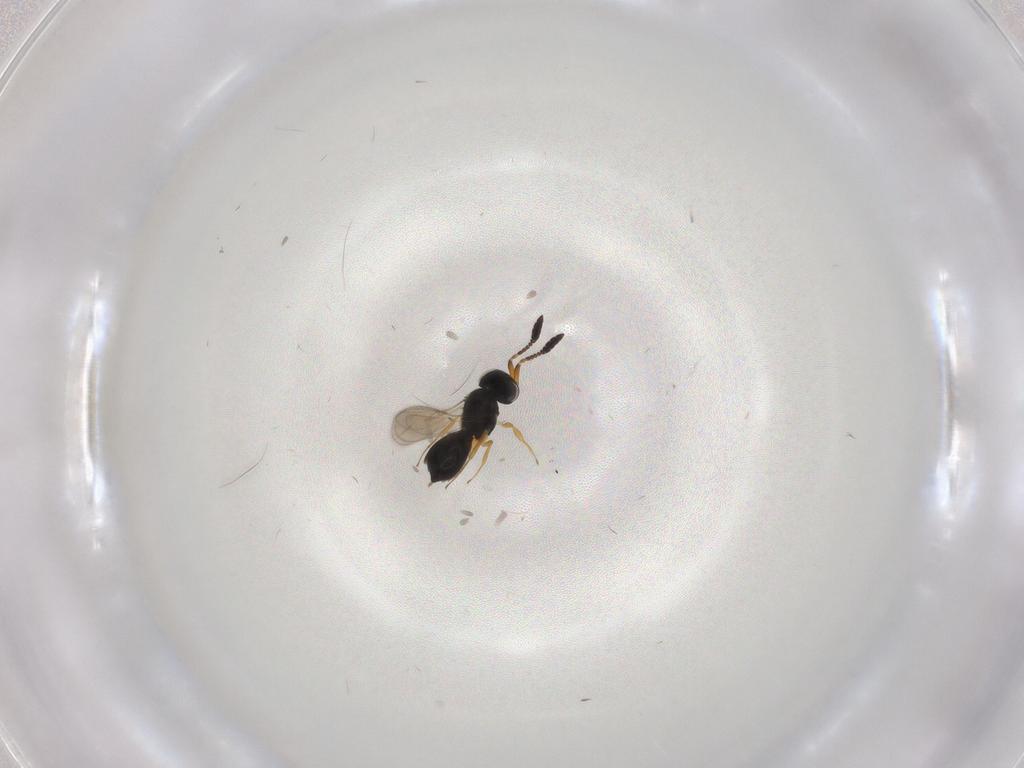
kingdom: Animalia
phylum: Arthropoda
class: Insecta
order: Hymenoptera
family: Scelionidae
